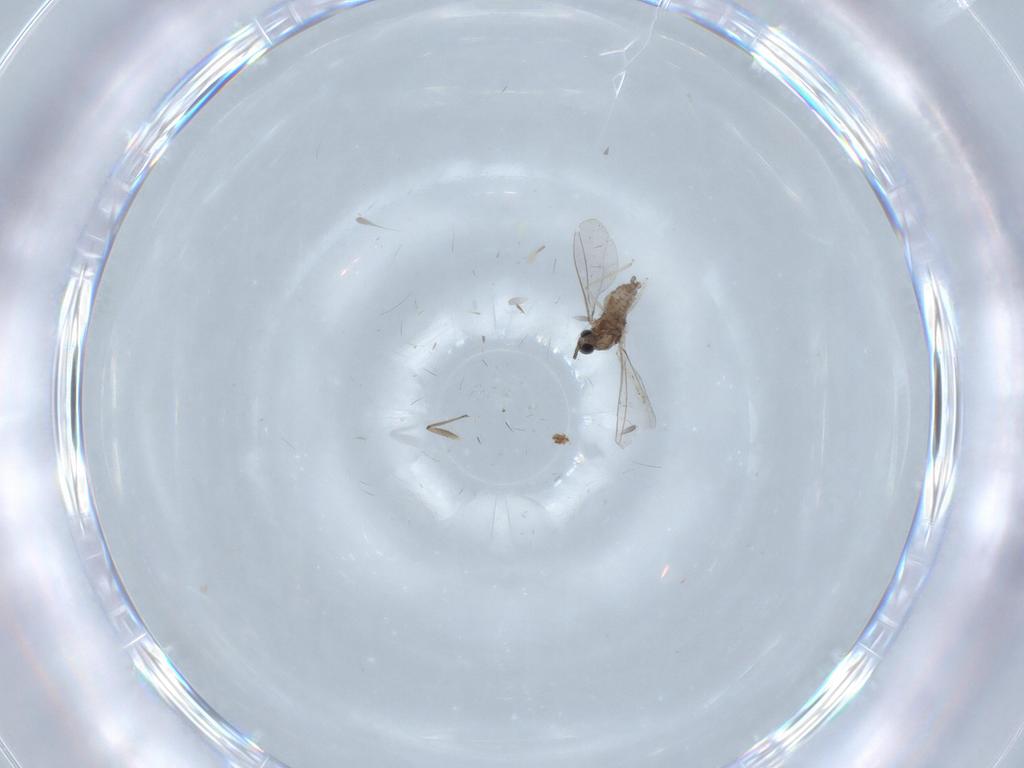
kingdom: Animalia
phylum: Arthropoda
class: Insecta
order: Diptera
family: Chironomidae
